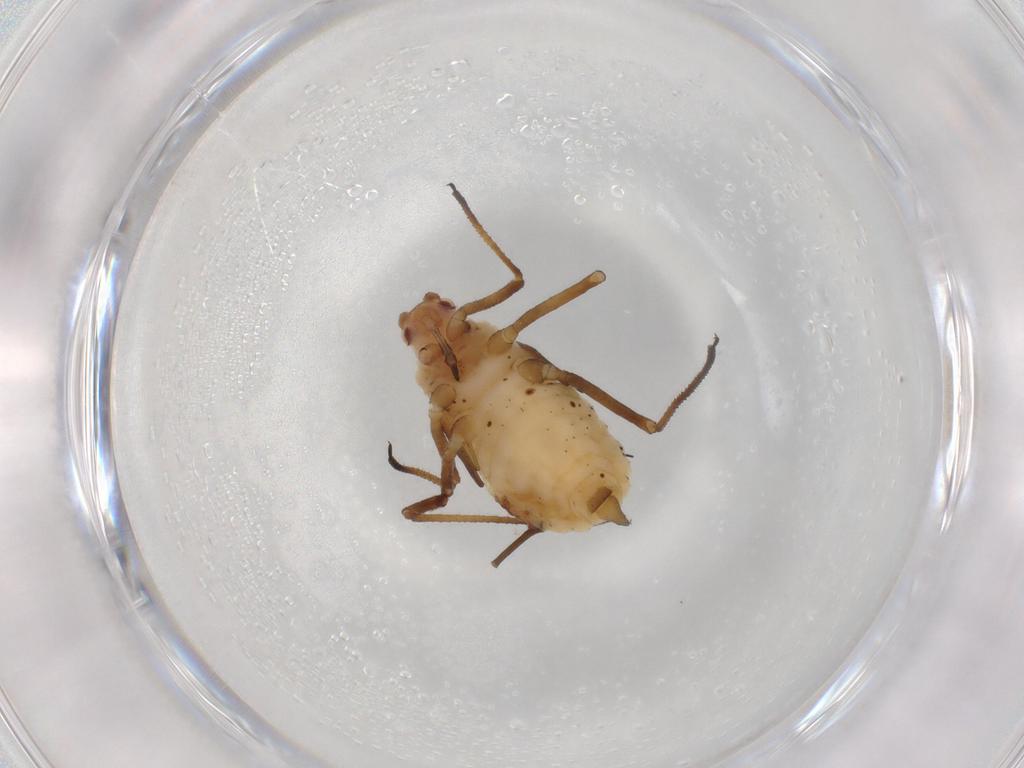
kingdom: Animalia
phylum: Arthropoda
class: Insecta
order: Hemiptera
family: Aphididae
